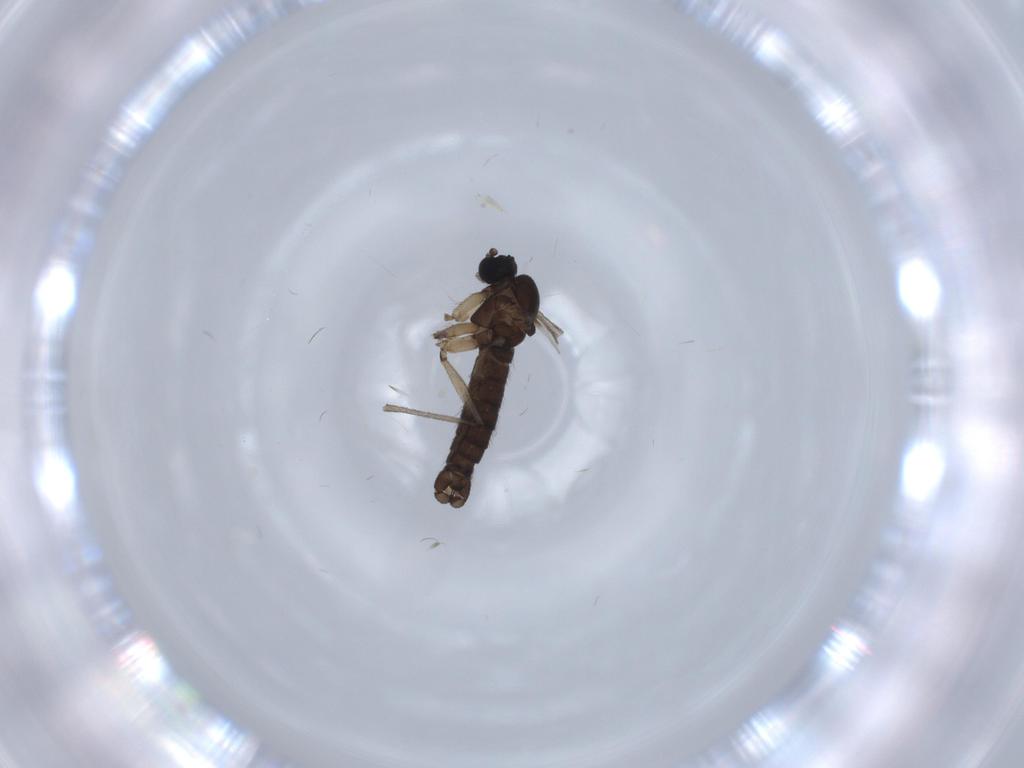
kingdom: Animalia
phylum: Arthropoda
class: Insecta
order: Diptera
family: Sciaridae
